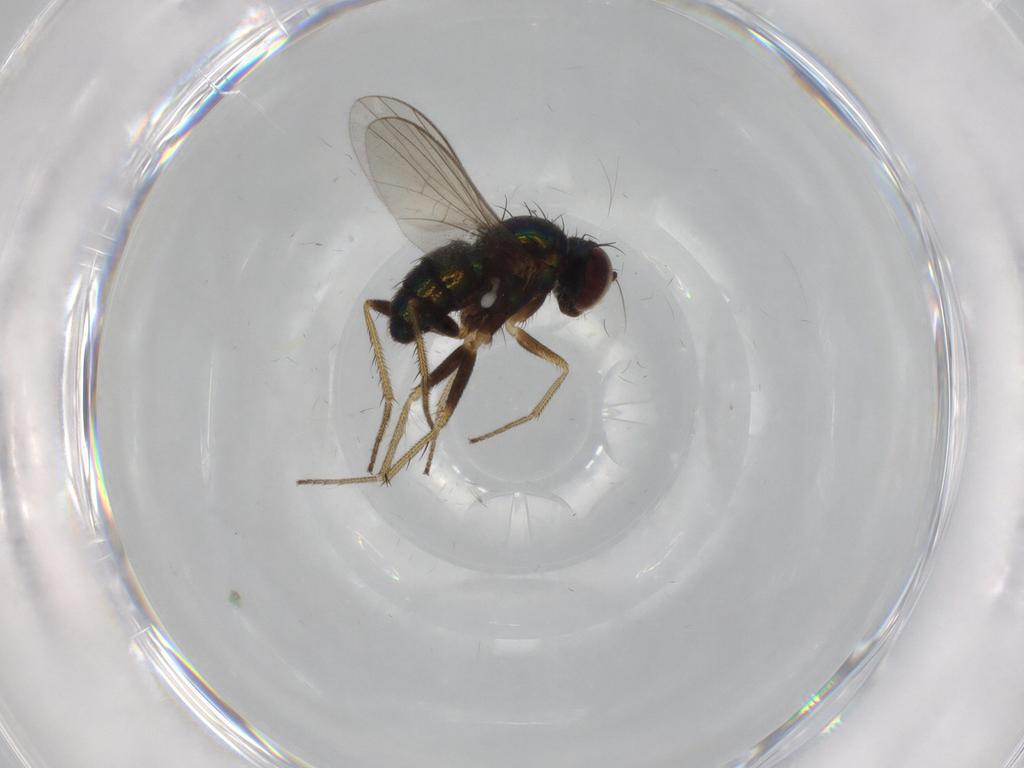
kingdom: Animalia
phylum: Arthropoda
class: Insecta
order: Diptera
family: Dolichopodidae
